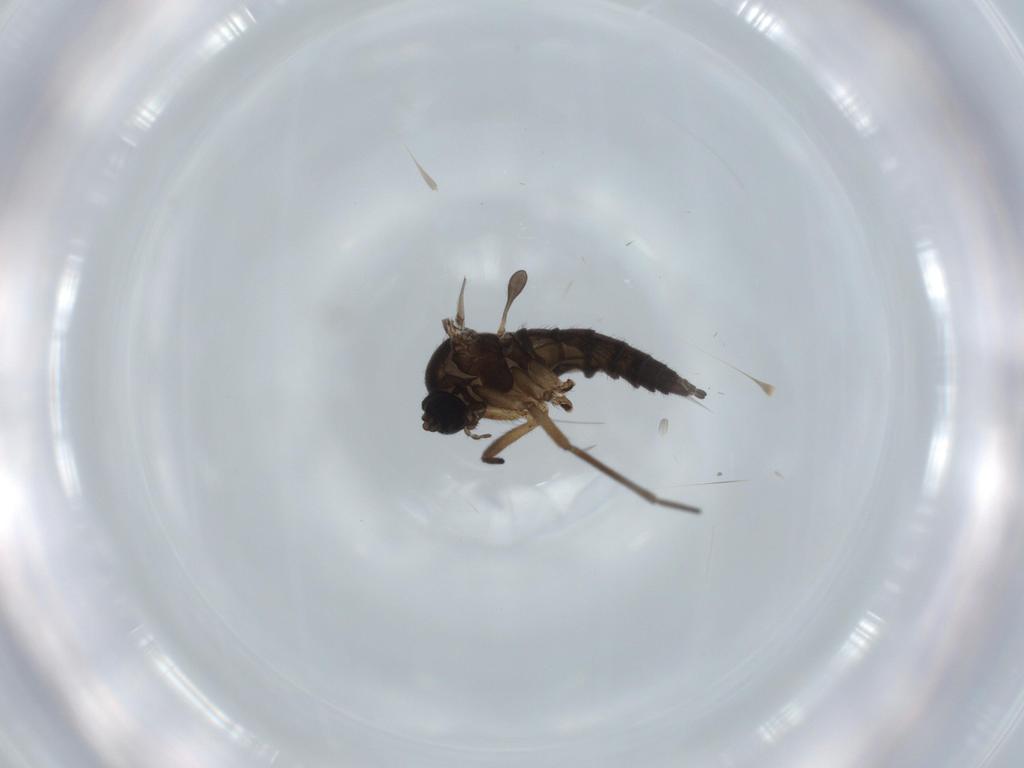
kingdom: Animalia
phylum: Arthropoda
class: Insecta
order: Diptera
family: Sciaridae
